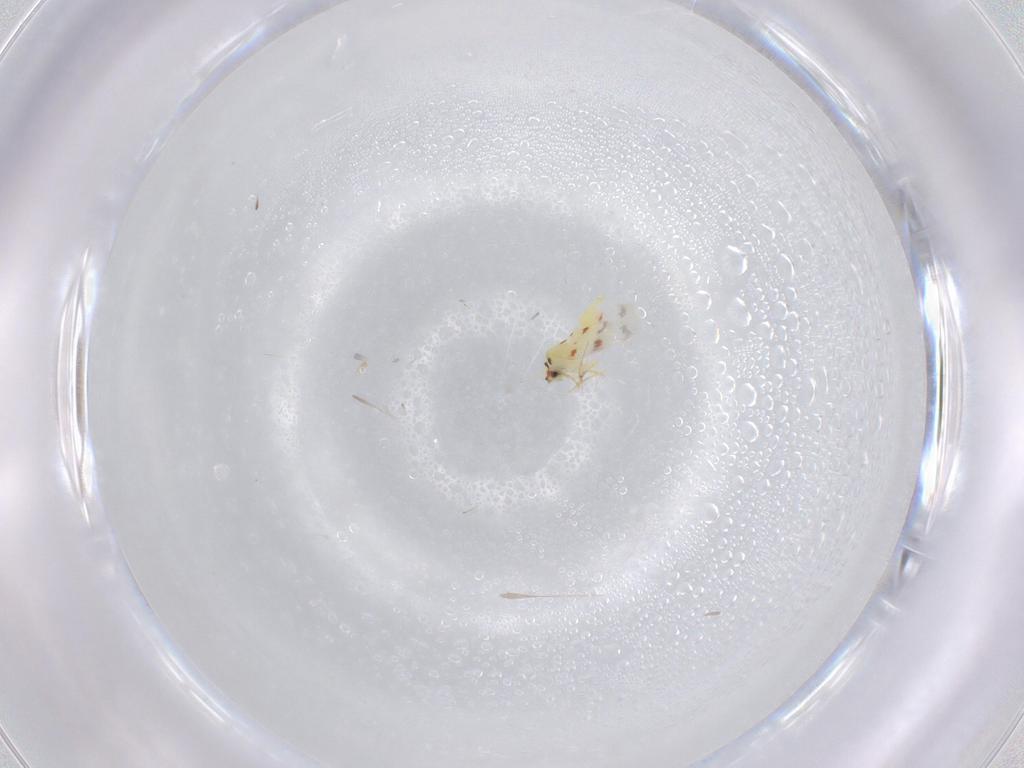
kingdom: Animalia
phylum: Arthropoda
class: Insecta
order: Hemiptera
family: Aleyrodidae
